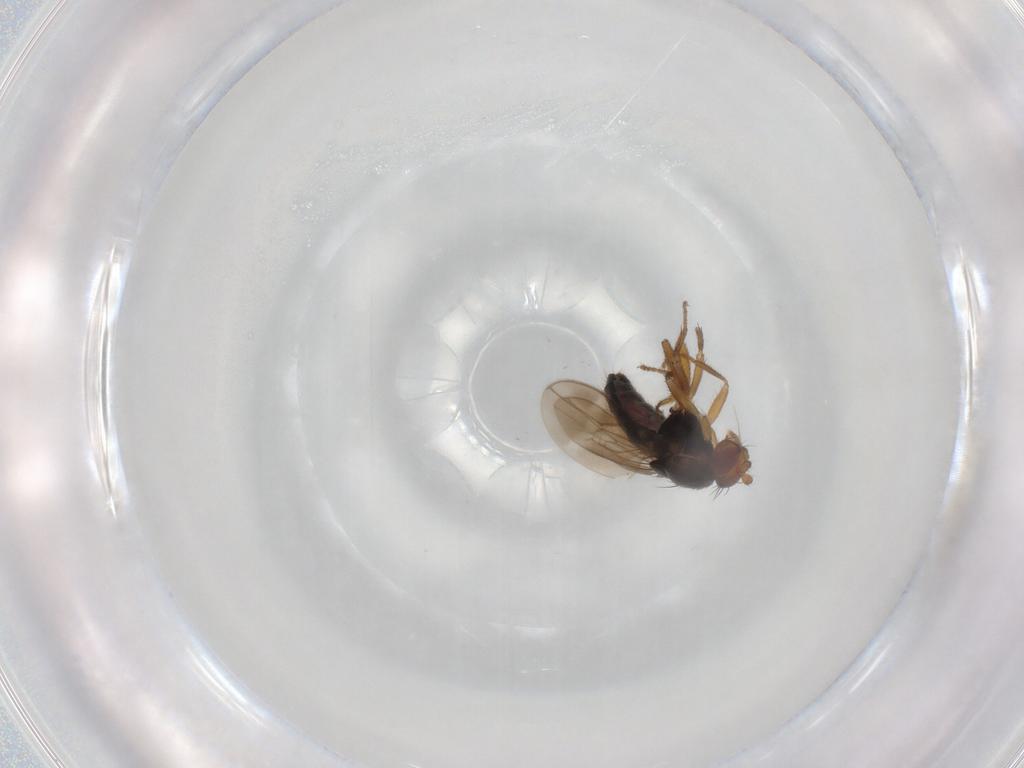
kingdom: Animalia
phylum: Arthropoda
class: Insecta
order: Diptera
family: Sphaeroceridae
